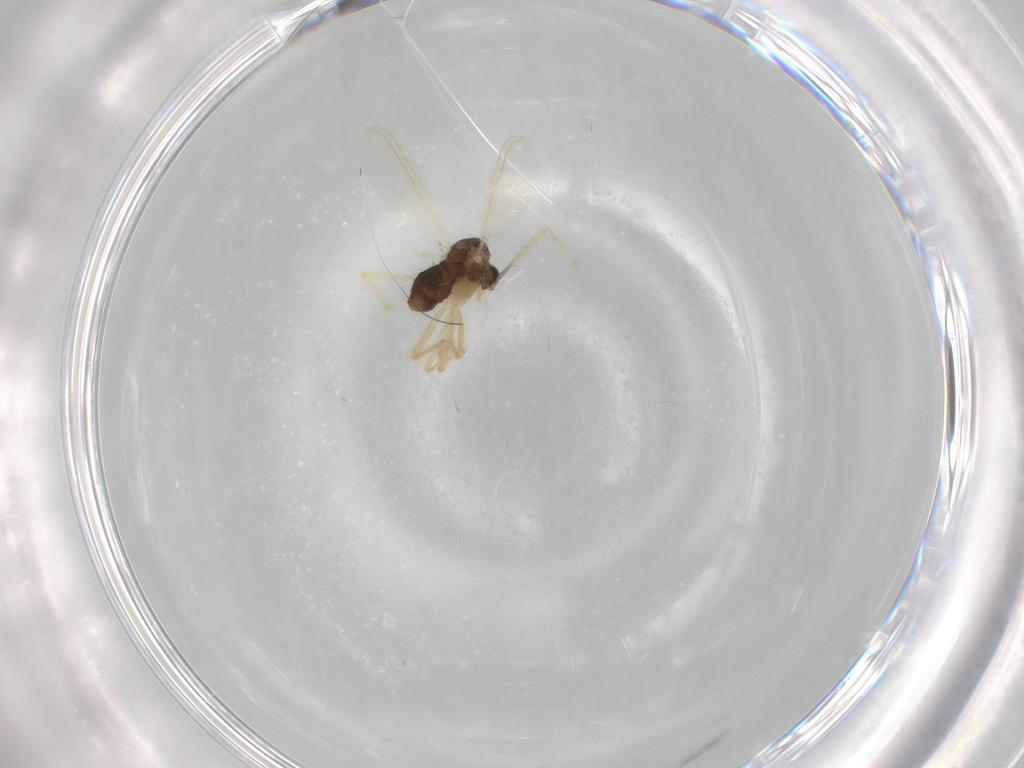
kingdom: Animalia
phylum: Arthropoda
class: Insecta
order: Diptera
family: Chironomidae
